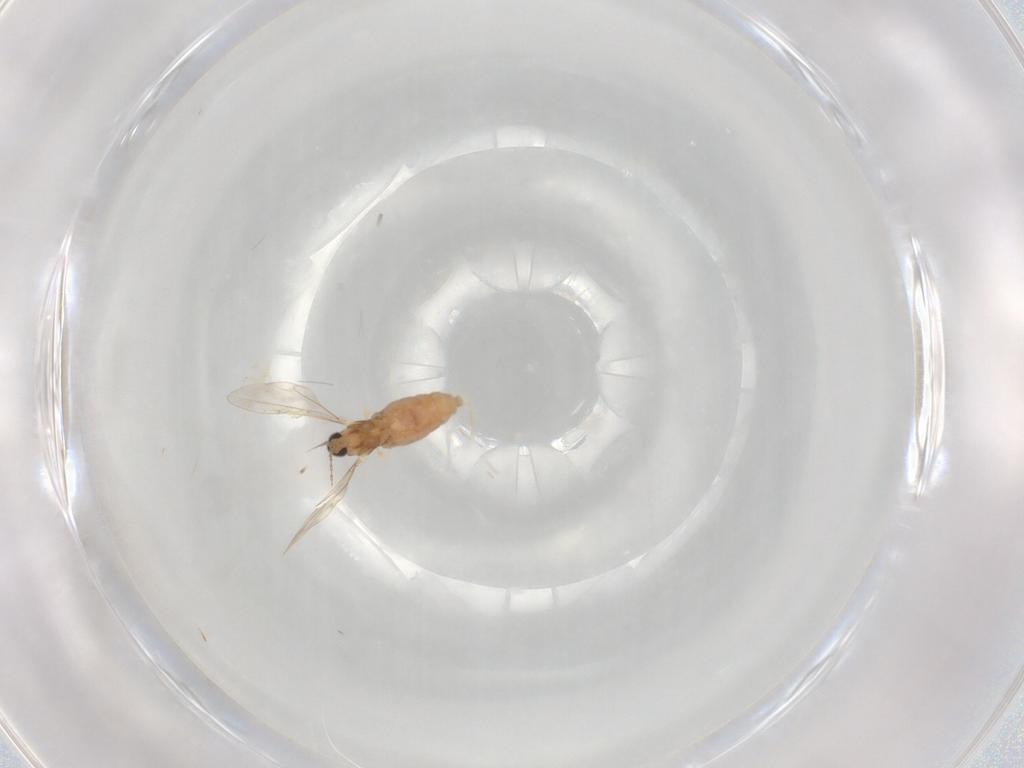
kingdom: Animalia
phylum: Arthropoda
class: Insecta
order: Diptera
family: Cecidomyiidae
